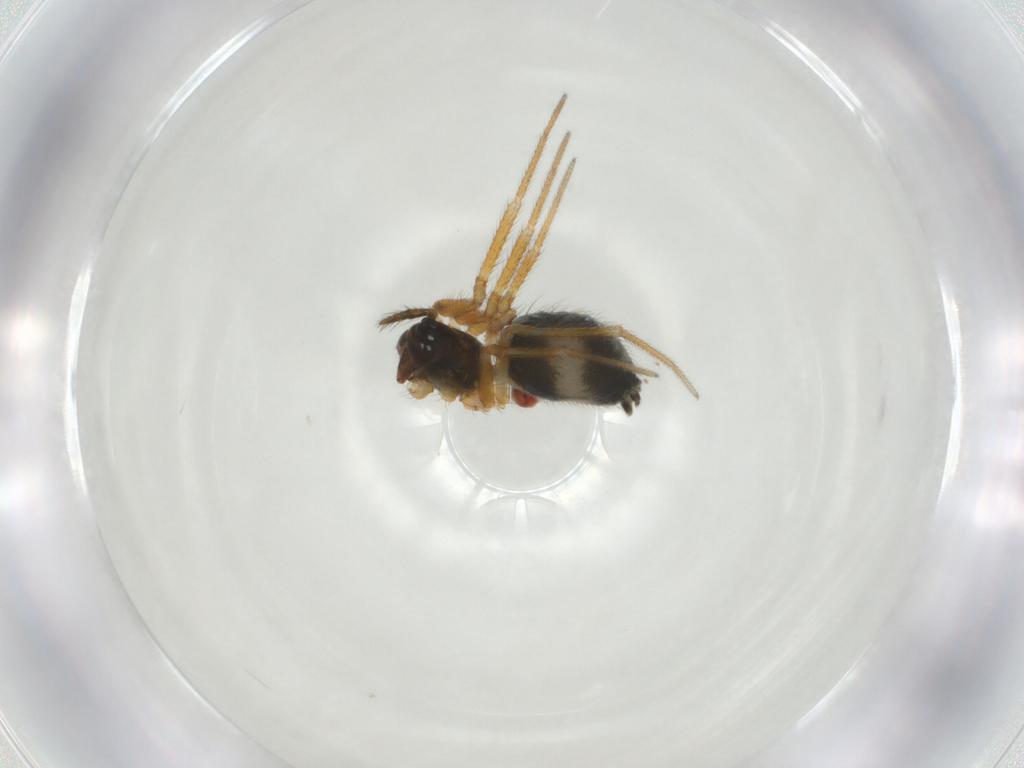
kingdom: Animalia
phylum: Arthropoda
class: Arachnida
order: Araneae
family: Linyphiidae
